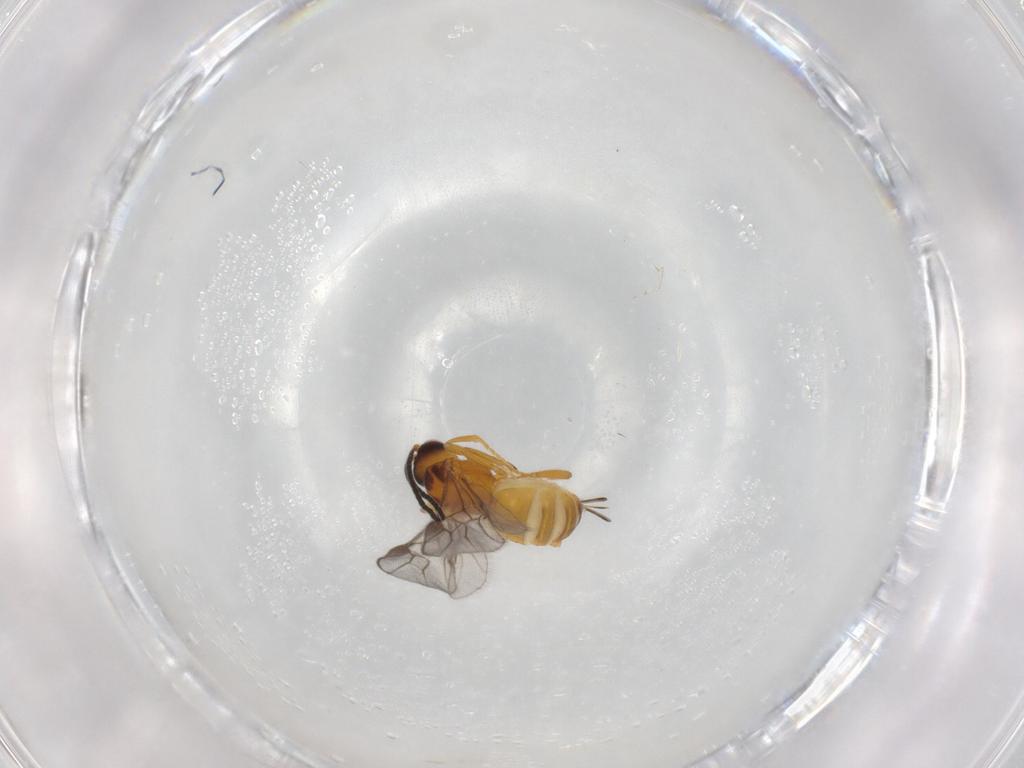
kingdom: Animalia
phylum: Arthropoda
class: Insecta
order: Hymenoptera
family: Braconidae
